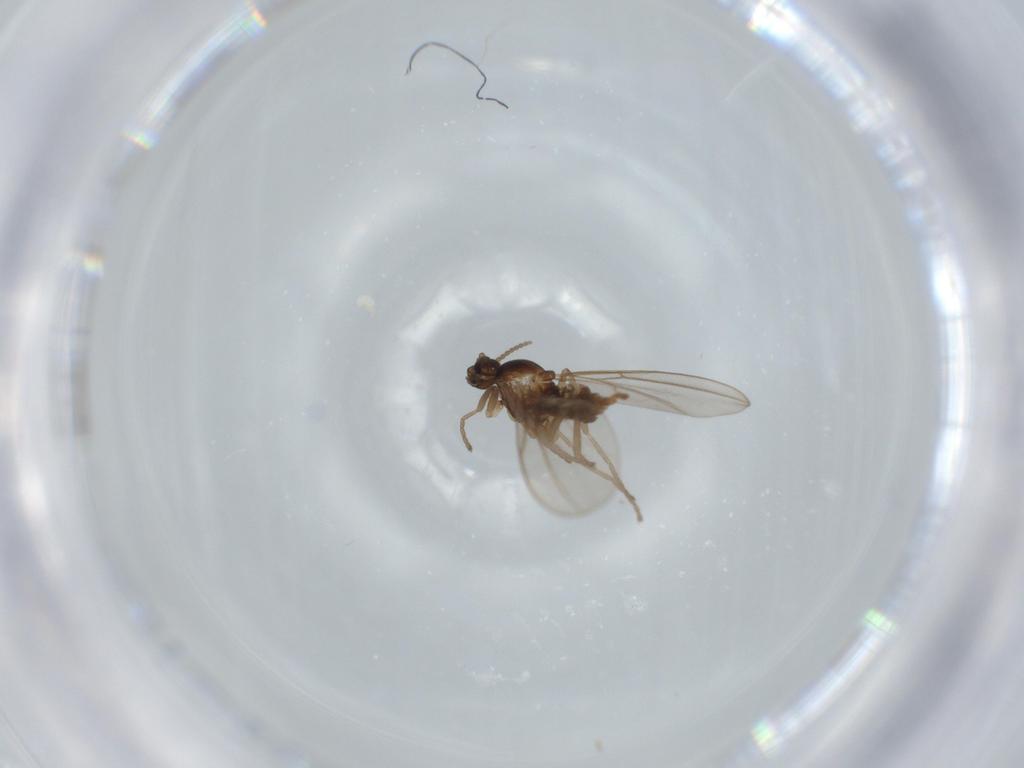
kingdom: Animalia
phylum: Arthropoda
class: Insecta
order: Diptera
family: Cecidomyiidae
